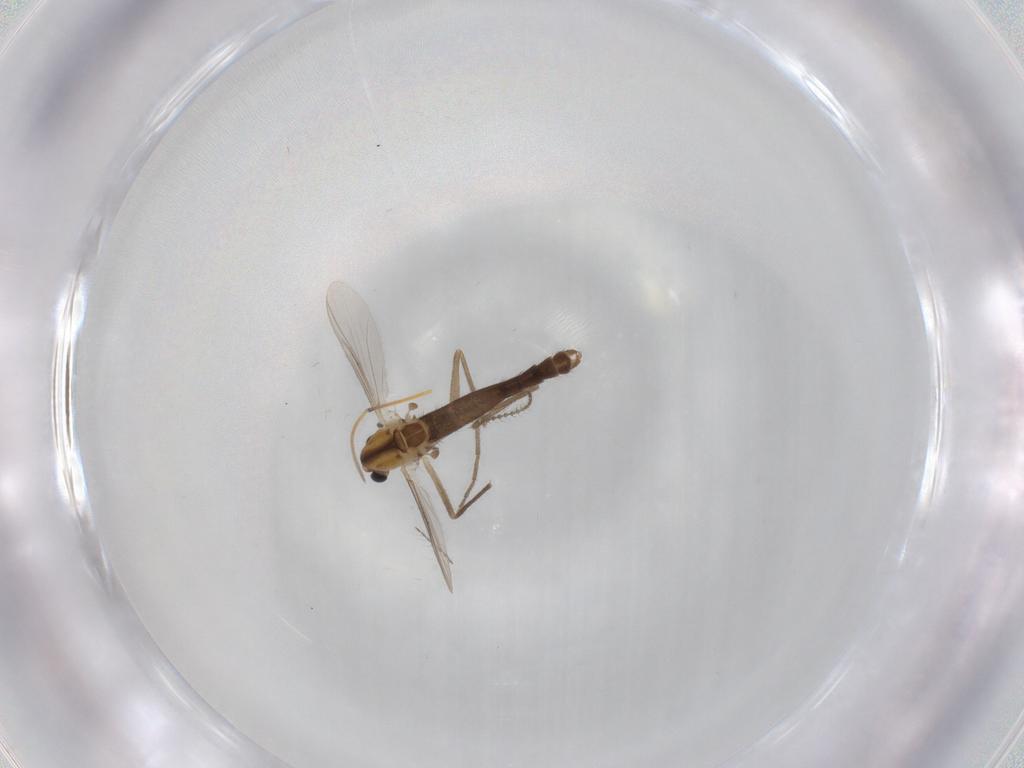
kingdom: Animalia
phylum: Arthropoda
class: Insecta
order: Diptera
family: Chironomidae
